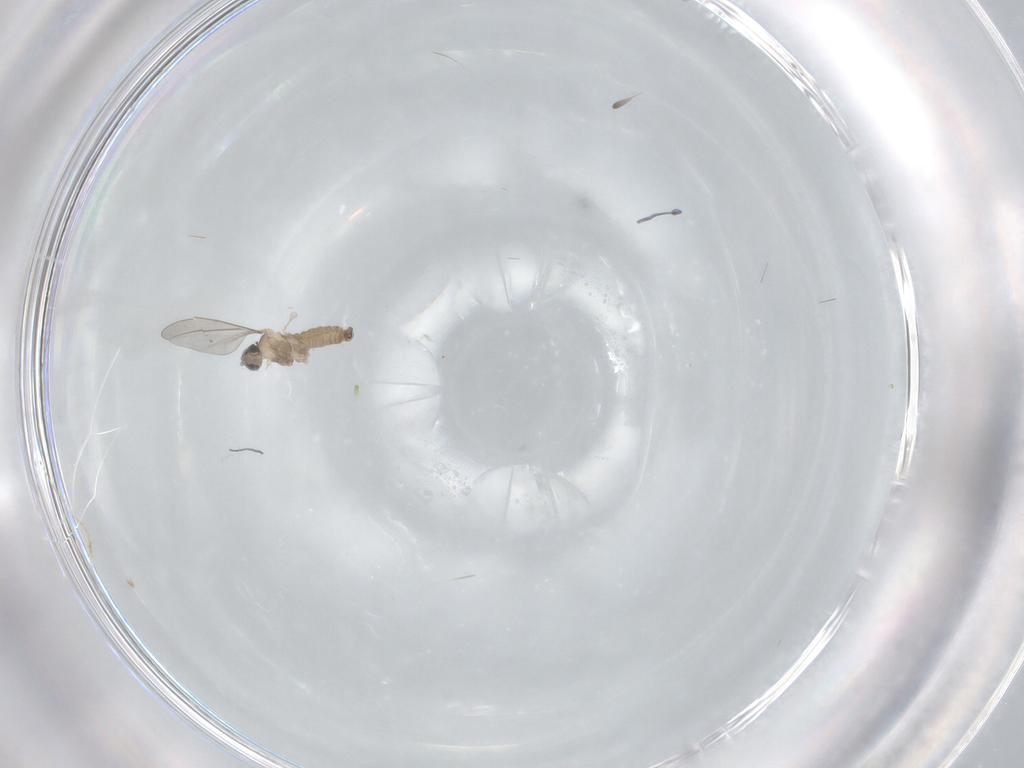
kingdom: Animalia
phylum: Arthropoda
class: Insecta
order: Diptera
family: Cecidomyiidae
